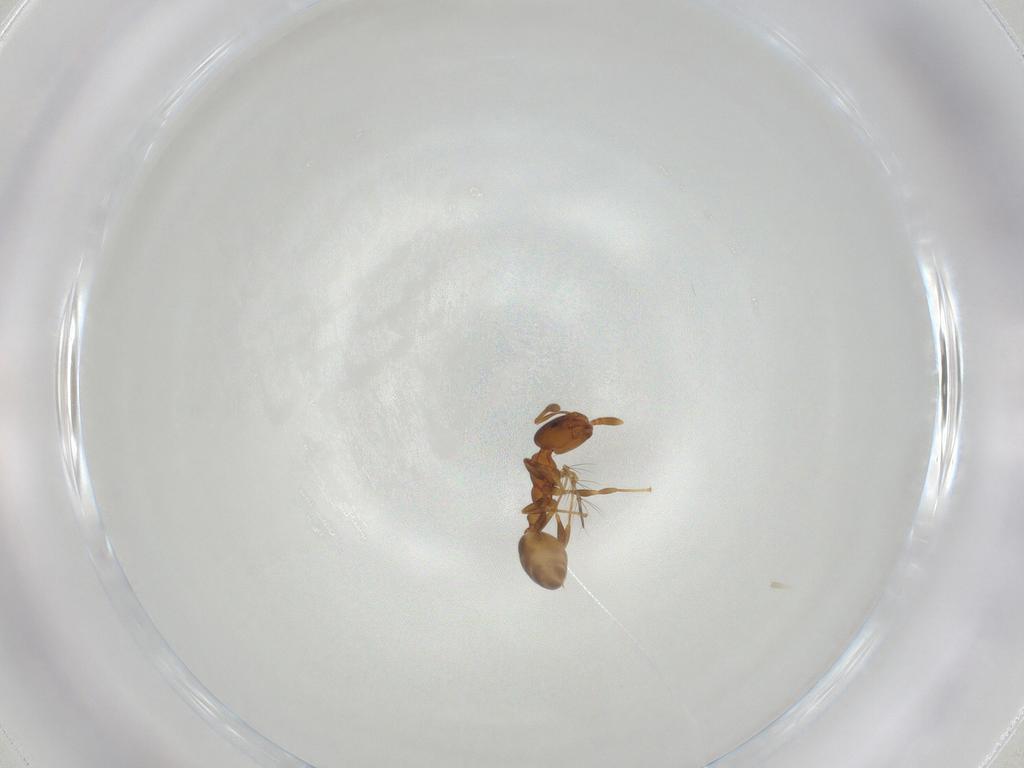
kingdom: Animalia
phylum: Arthropoda
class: Insecta
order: Hymenoptera
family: Formicidae
